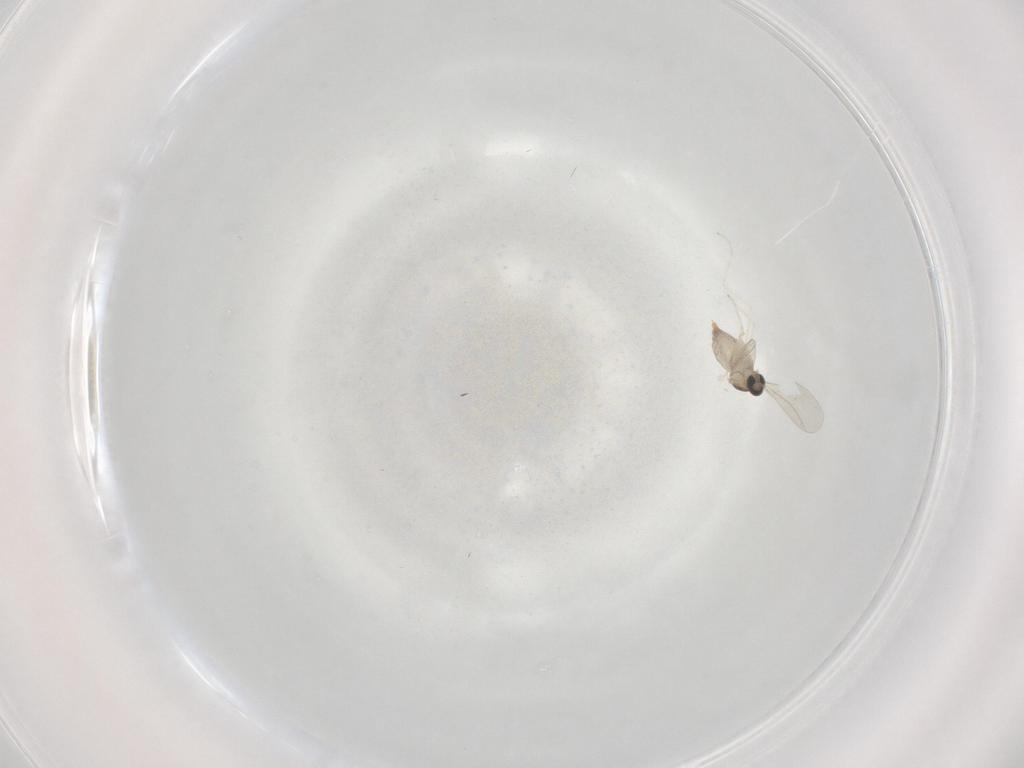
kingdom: Animalia
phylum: Arthropoda
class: Insecta
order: Diptera
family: Cecidomyiidae
